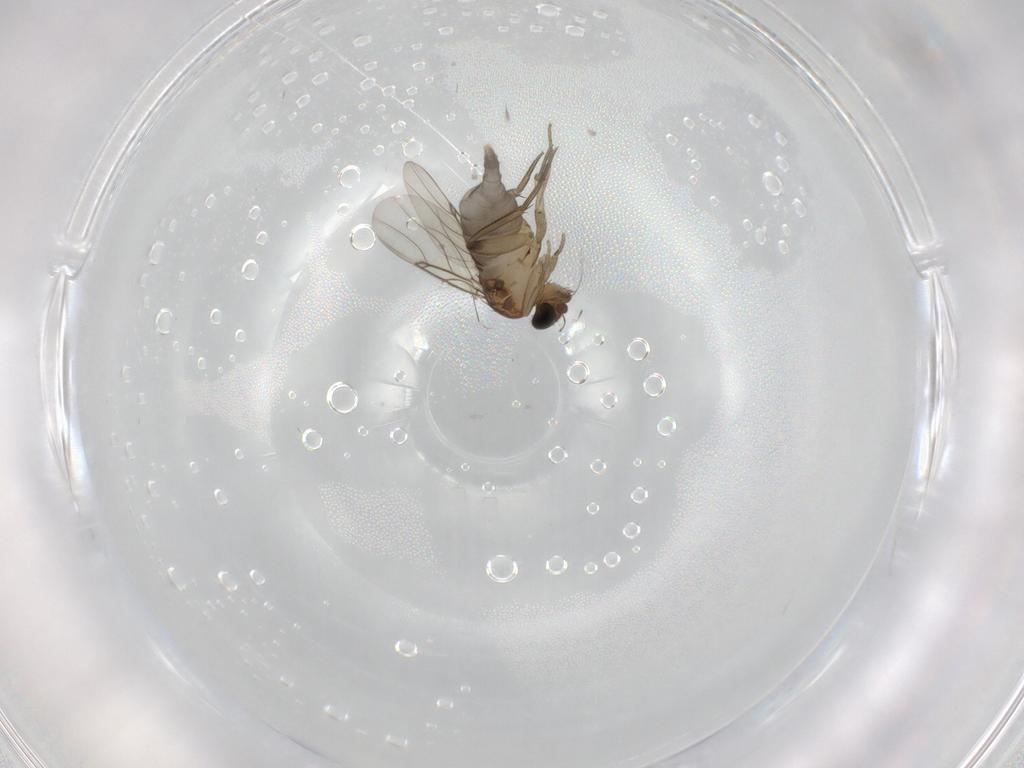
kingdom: Animalia
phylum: Arthropoda
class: Insecta
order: Diptera
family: Phoridae
